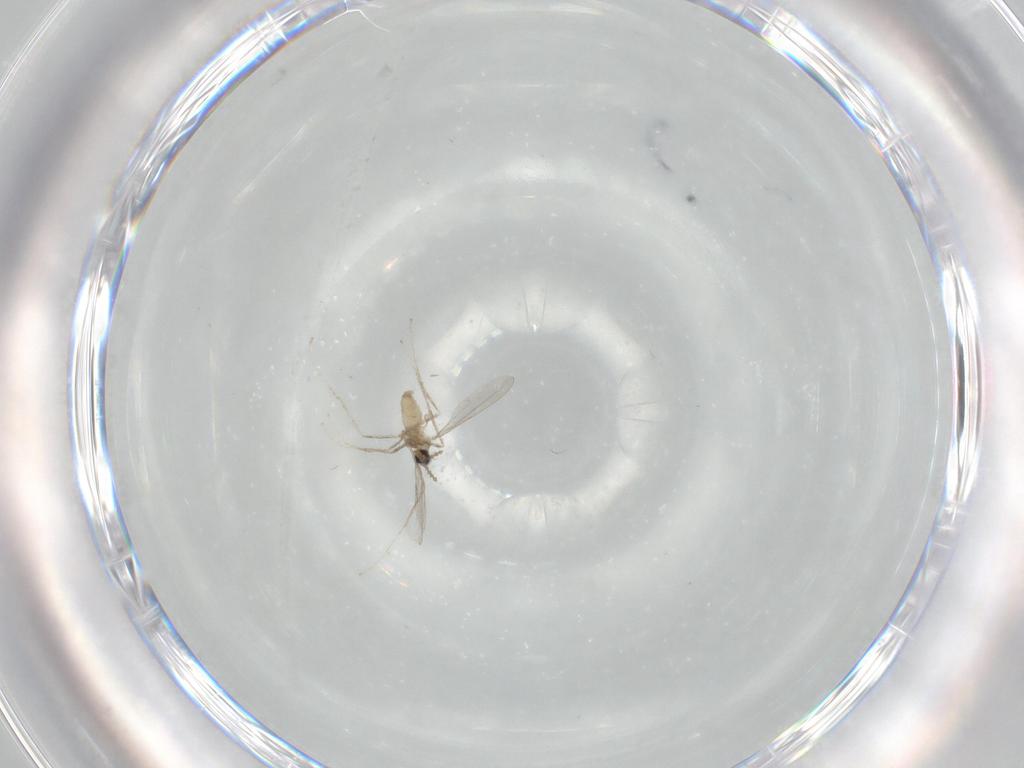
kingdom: Animalia
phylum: Arthropoda
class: Insecta
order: Diptera
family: Cecidomyiidae
